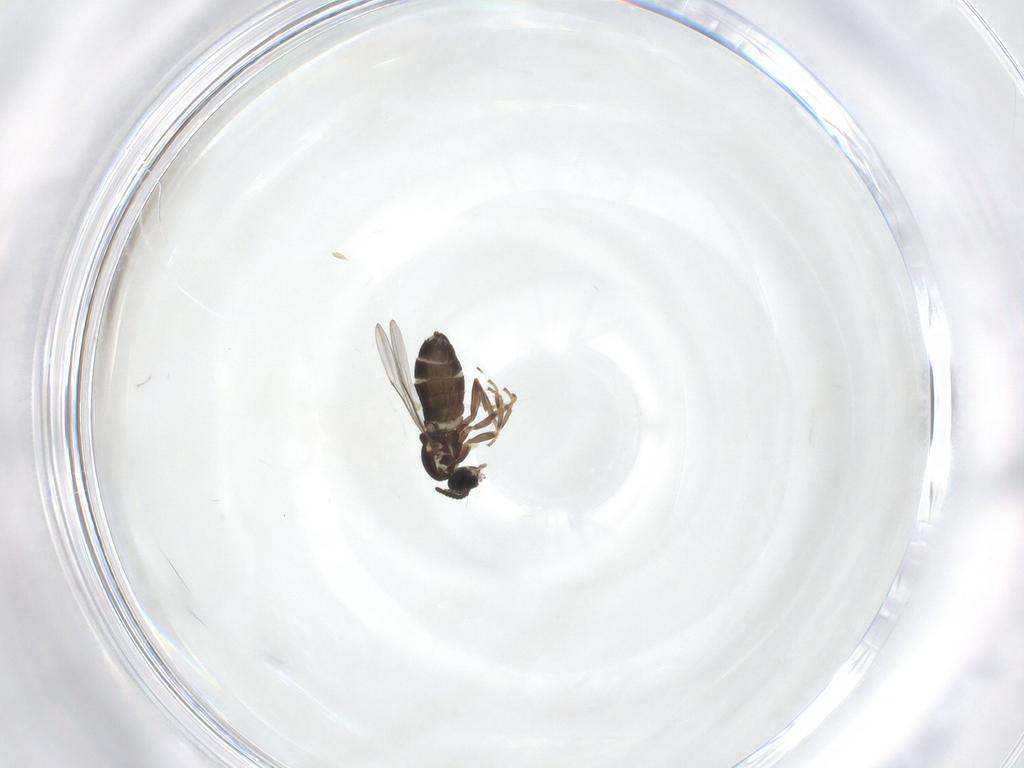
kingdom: Animalia
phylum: Arthropoda
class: Insecta
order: Diptera
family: Scatopsidae
